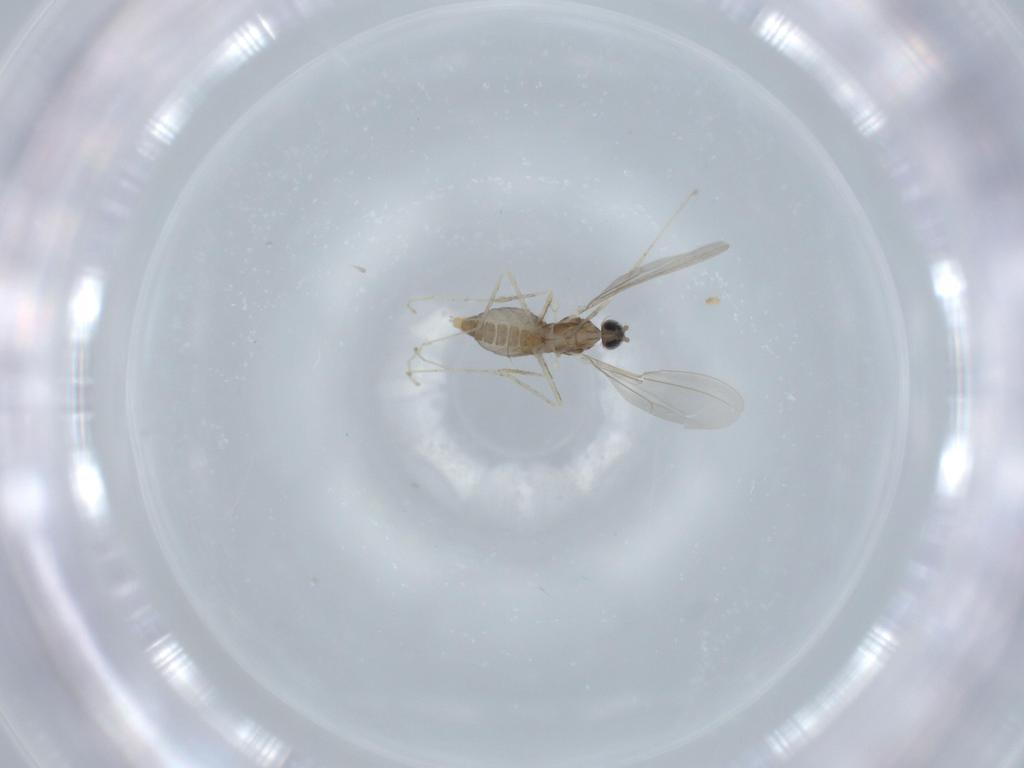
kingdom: Animalia
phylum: Arthropoda
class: Insecta
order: Diptera
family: Cecidomyiidae
